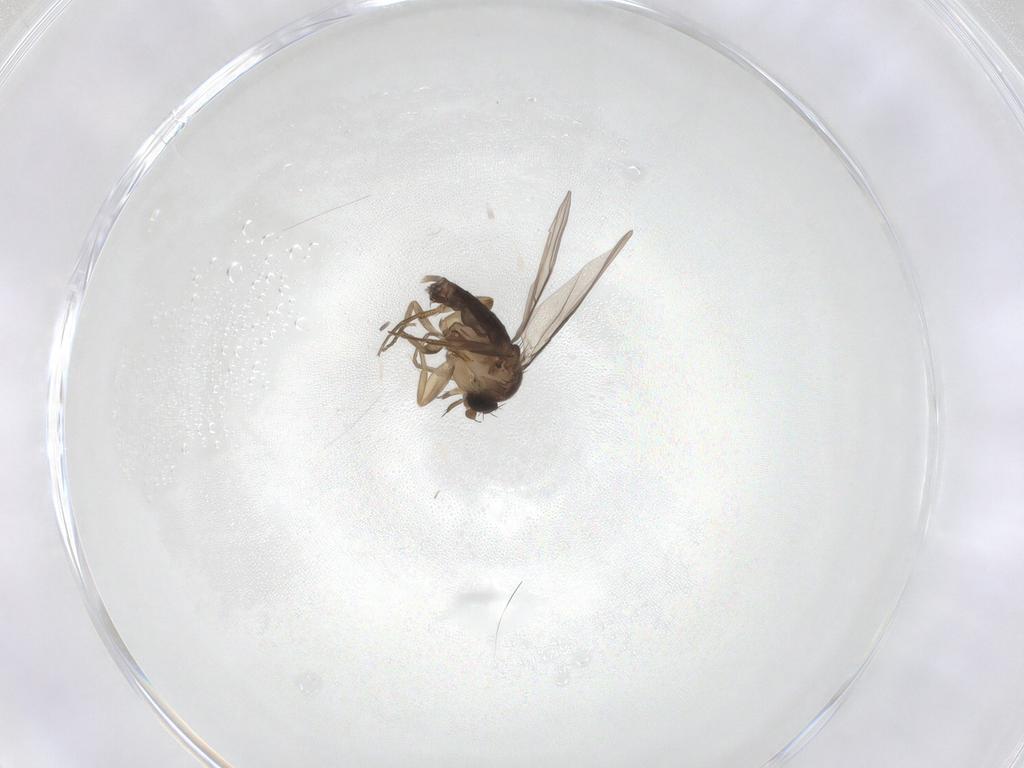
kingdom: Animalia
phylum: Arthropoda
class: Insecta
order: Diptera
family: Phoridae
